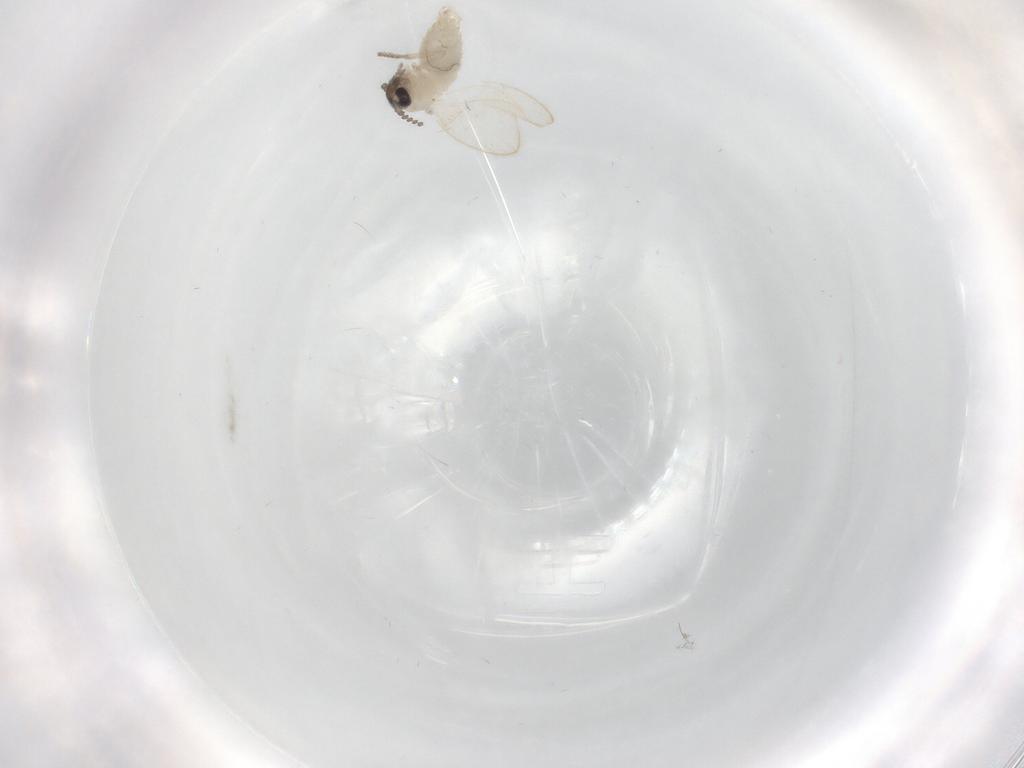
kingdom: Animalia
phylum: Arthropoda
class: Insecta
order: Diptera
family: Psychodidae
